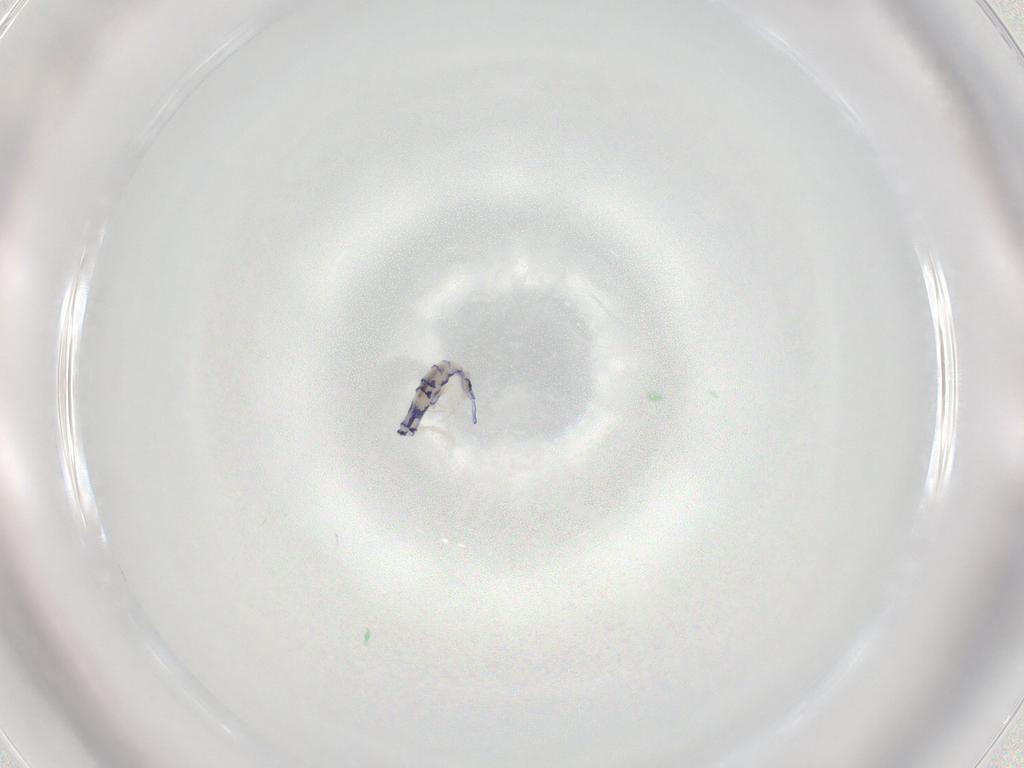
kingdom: Animalia
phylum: Arthropoda
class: Collembola
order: Entomobryomorpha
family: Entomobryidae
